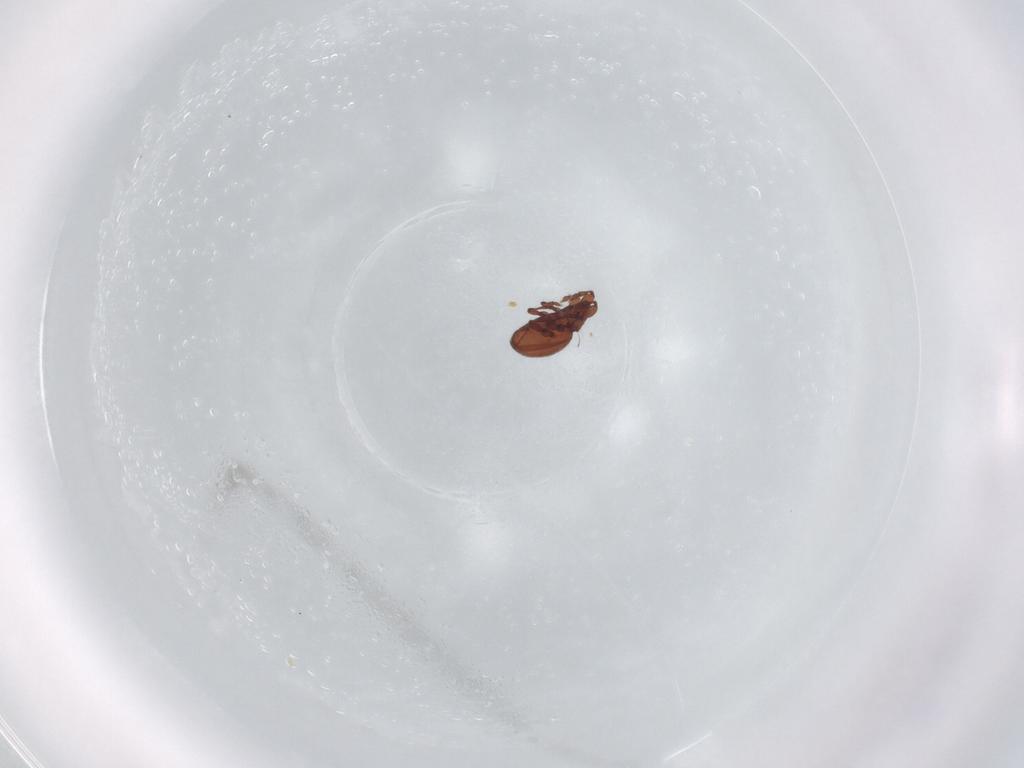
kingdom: Animalia
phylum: Arthropoda
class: Arachnida
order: Sarcoptiformes
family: Eremaeidae
